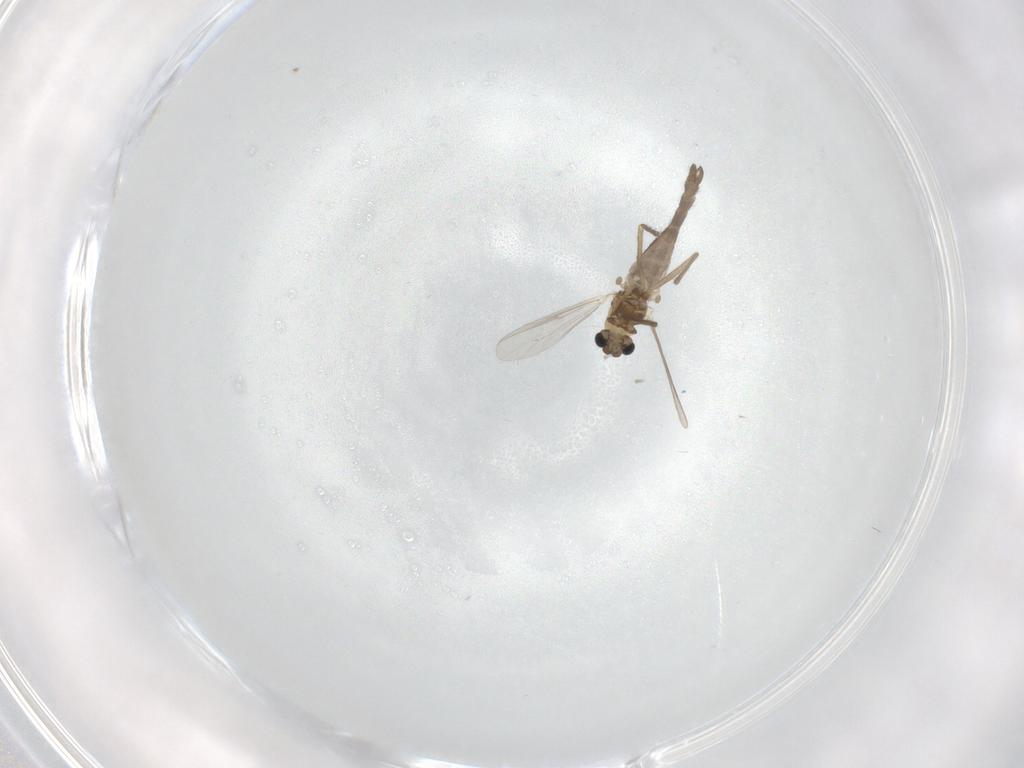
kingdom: Animalia
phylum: Arthropoda
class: Insecta
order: Diptera
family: Chironomidae
